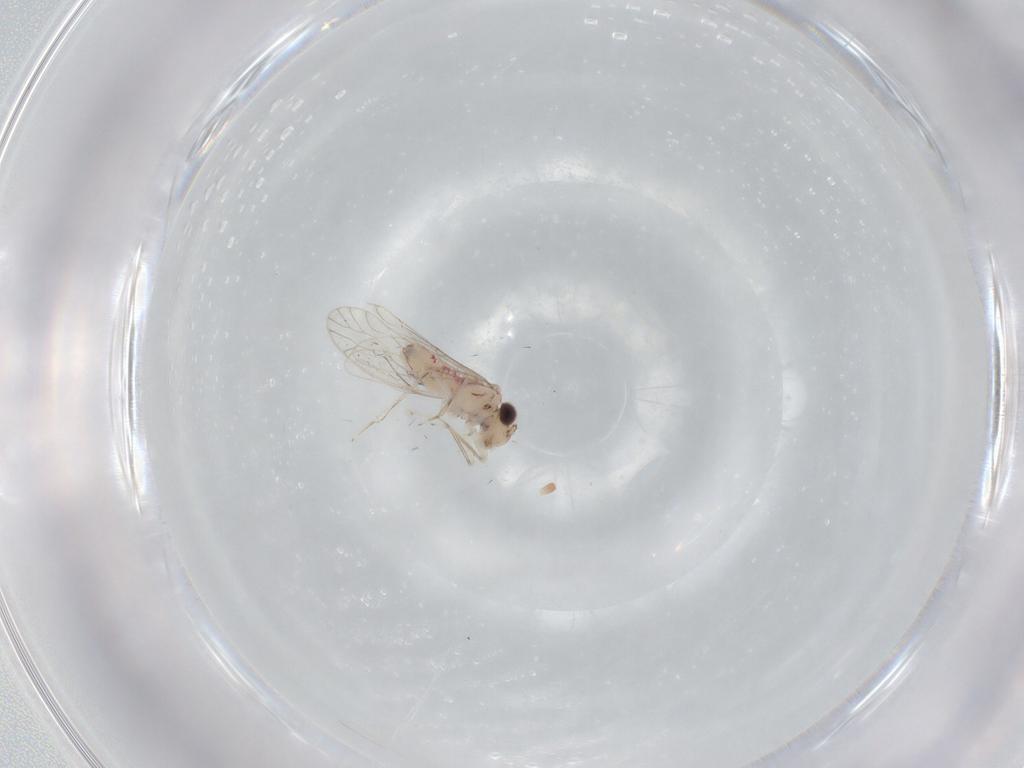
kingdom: Animalia
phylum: Arthropoda
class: Insecta
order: Psocodea
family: Caeciliusidae
